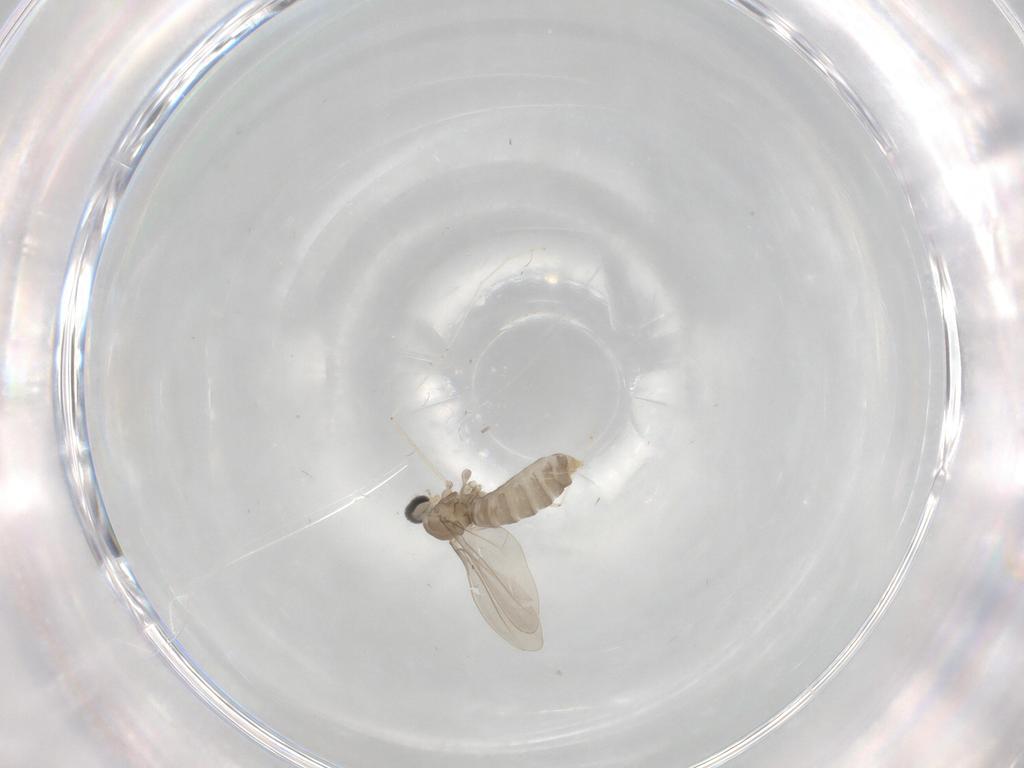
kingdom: Animalia
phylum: Arthropoda
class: Insecta
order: Diptera
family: Cecidomyiidae
